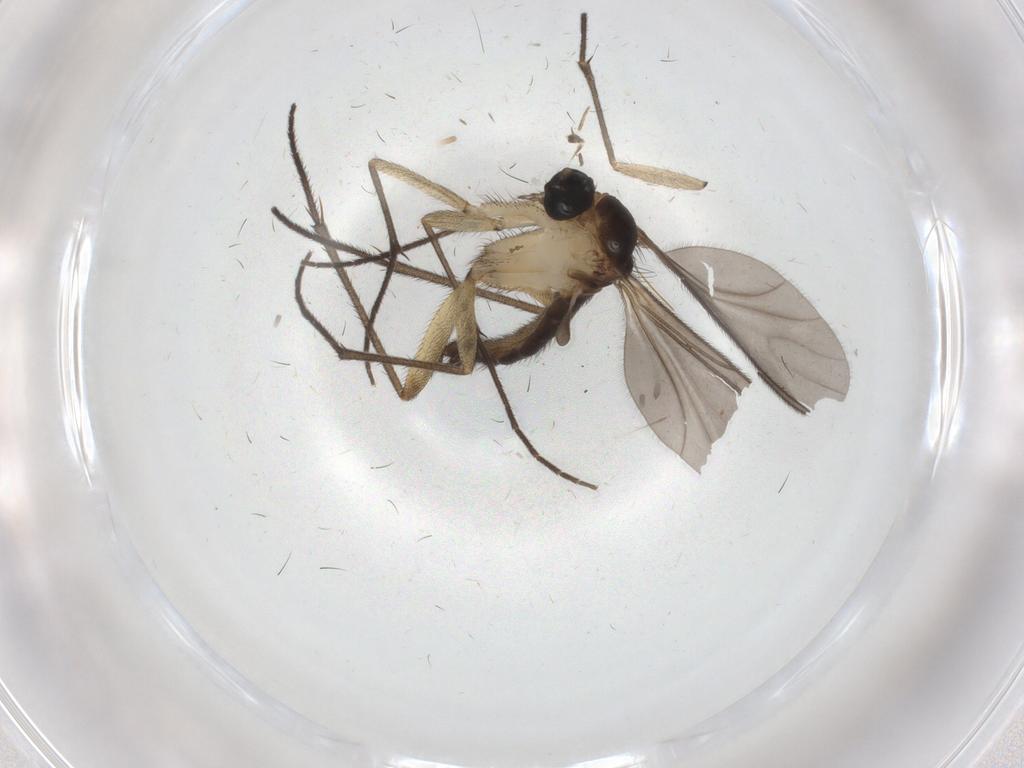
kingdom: Animalia
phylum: Arthropoda
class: Insecta
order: Diptera
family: Sciaridae
